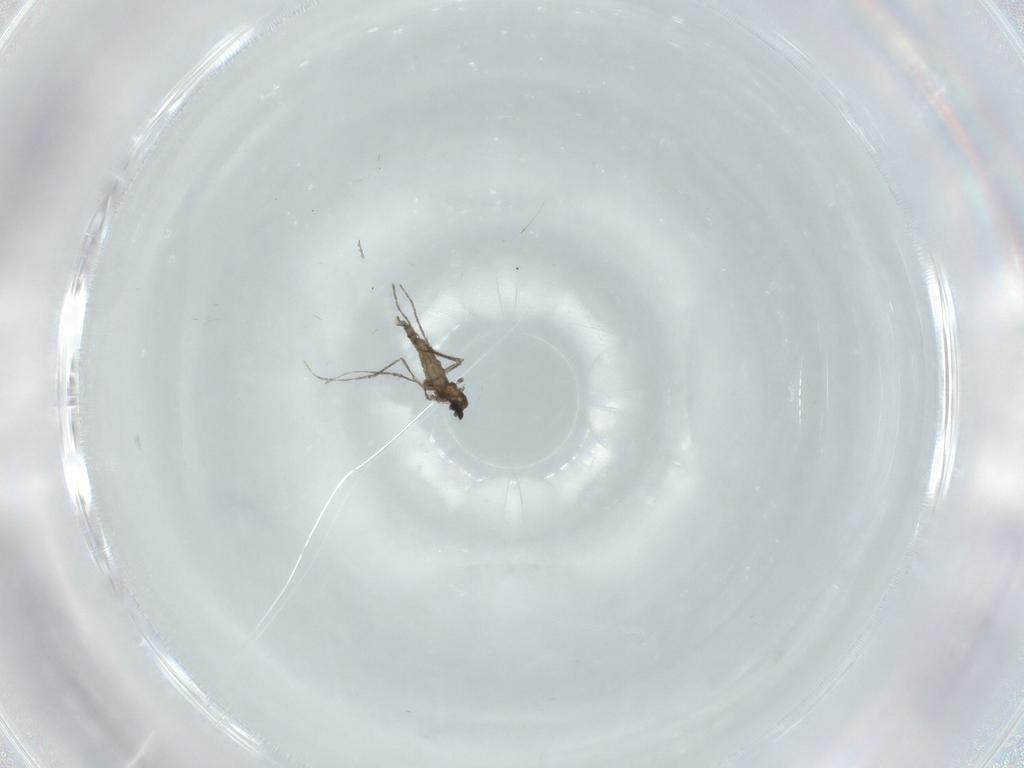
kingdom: Animalia
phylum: Arthropoda
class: Insecta
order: Diptera
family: Cecidomyiidae
